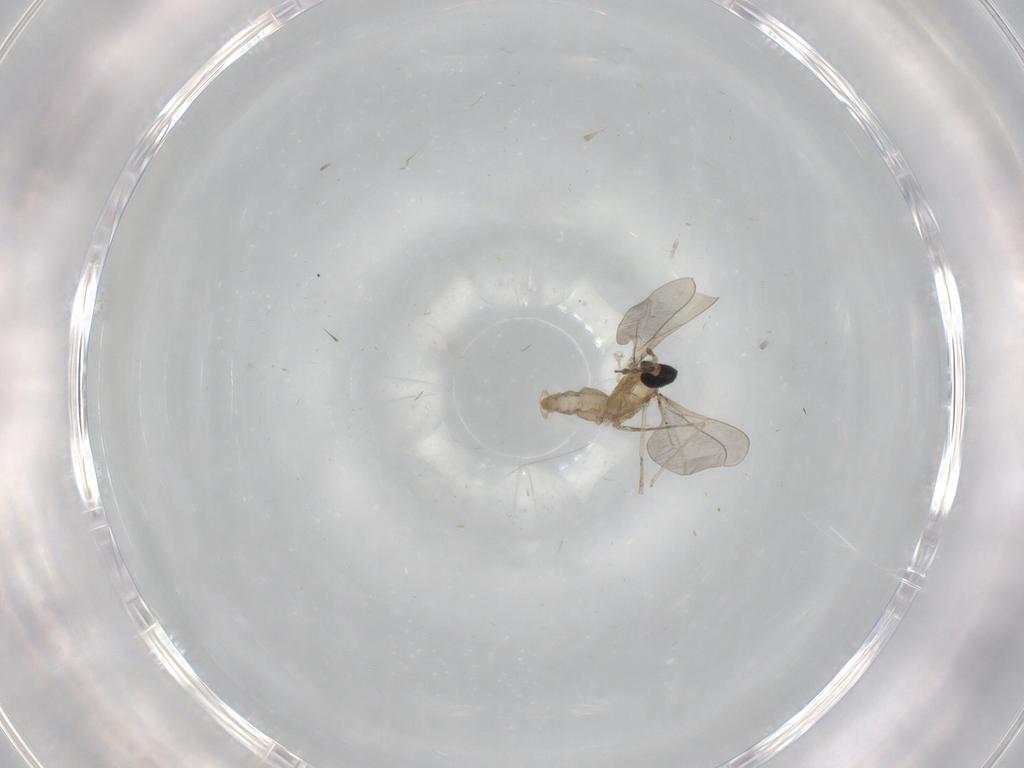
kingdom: Animalia
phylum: Arthropoda
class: Insecta
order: Diptera
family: Cecidomyiidae
